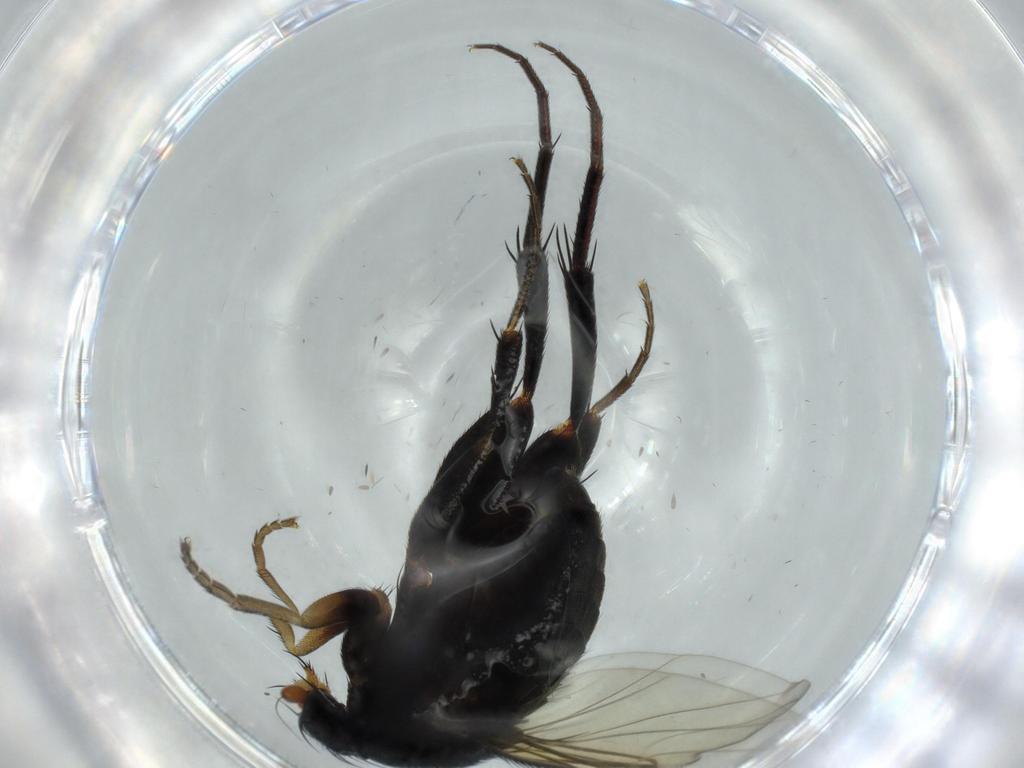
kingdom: Animalia
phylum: Arthropoda
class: Insecta
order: Diptera
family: Phoridae
